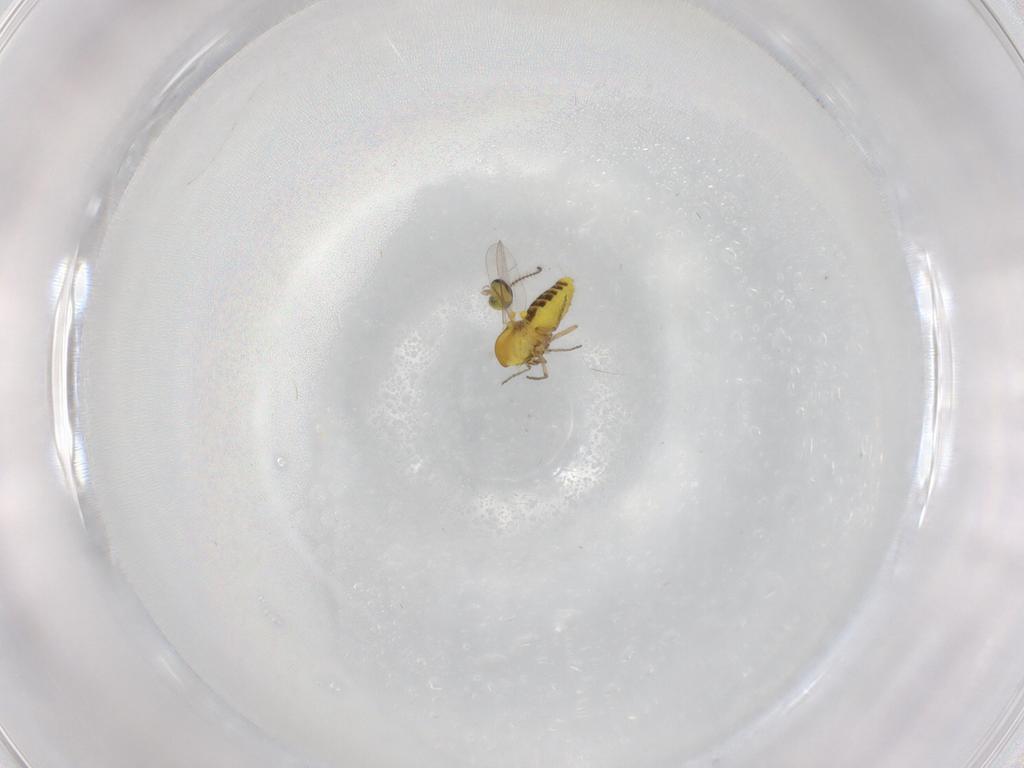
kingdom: Animalia
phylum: Arthropoda
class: Insecta
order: Diptera
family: Ceratopogonidae
